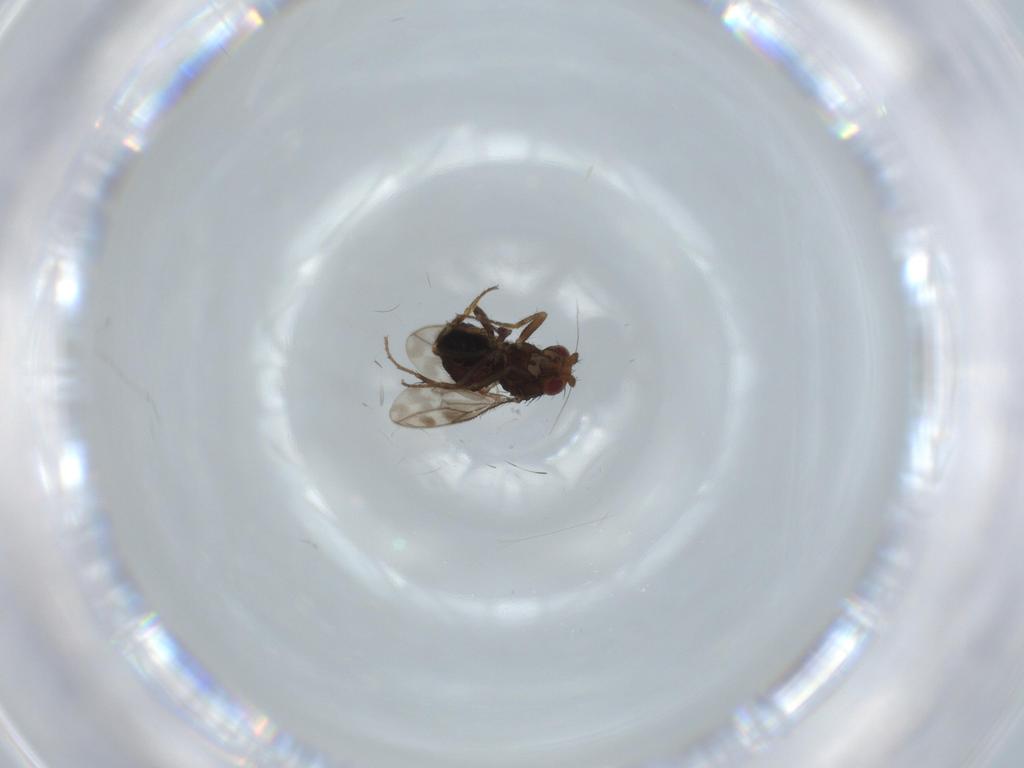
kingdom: Animalia
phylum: Arthropoda
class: Insecta
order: Diptera
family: Sphaeroceridae
